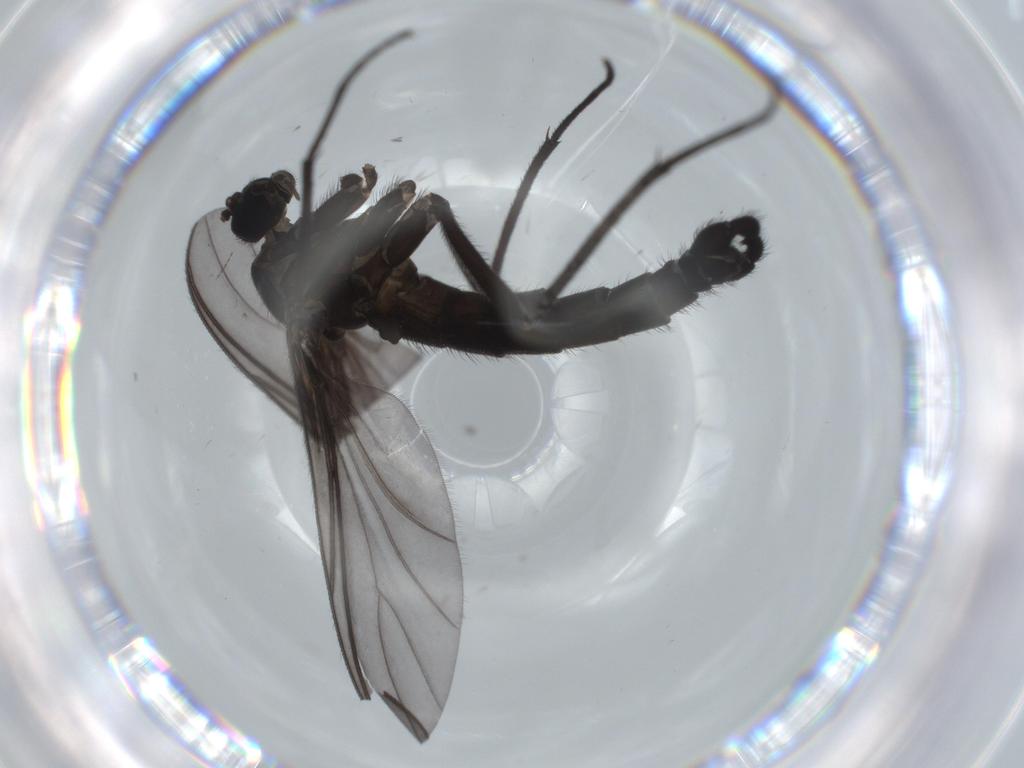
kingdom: Animalia
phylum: Arthropoda
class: Insecta
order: Diptera
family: Sciaridae
